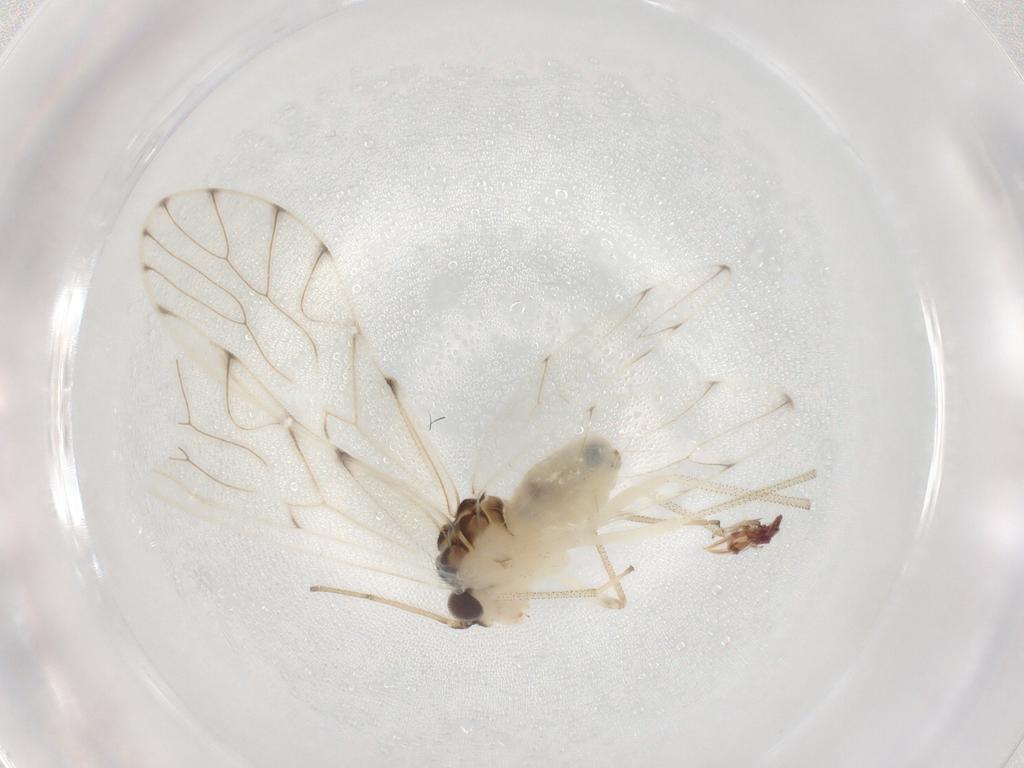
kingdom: Animalia
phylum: Arthropoda
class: Insecta
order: Psocodea
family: Philotarsidae
